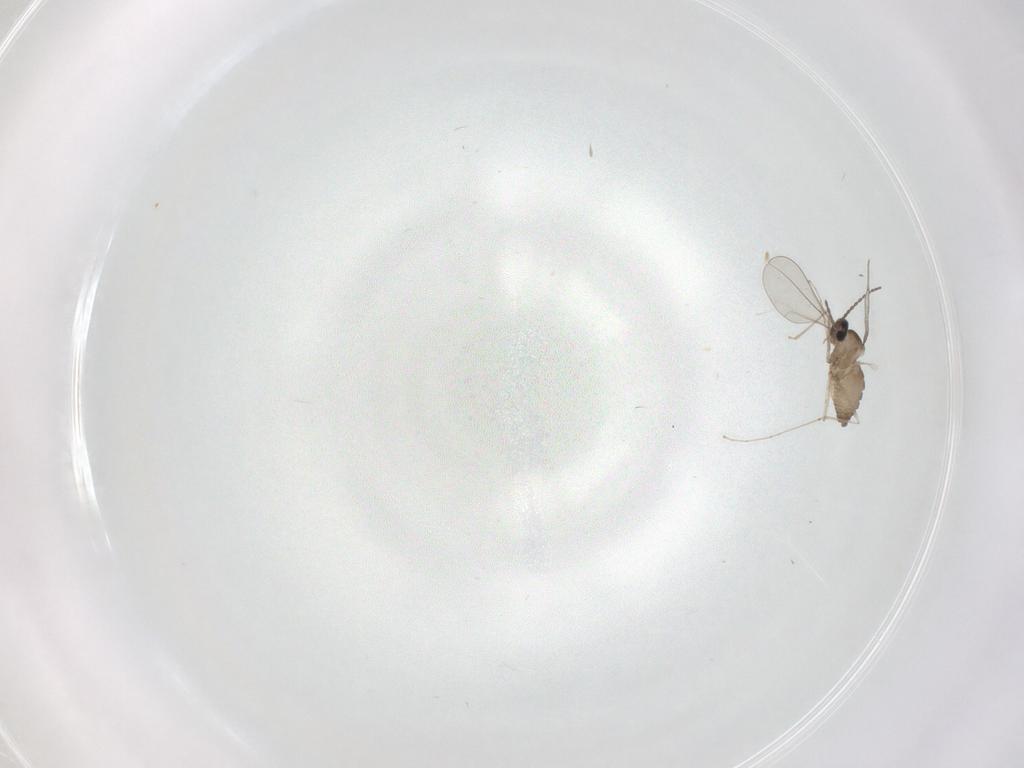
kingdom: Animalia
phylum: Arthropoda
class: Insecta
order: Diptera
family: Cecidomyiidae
